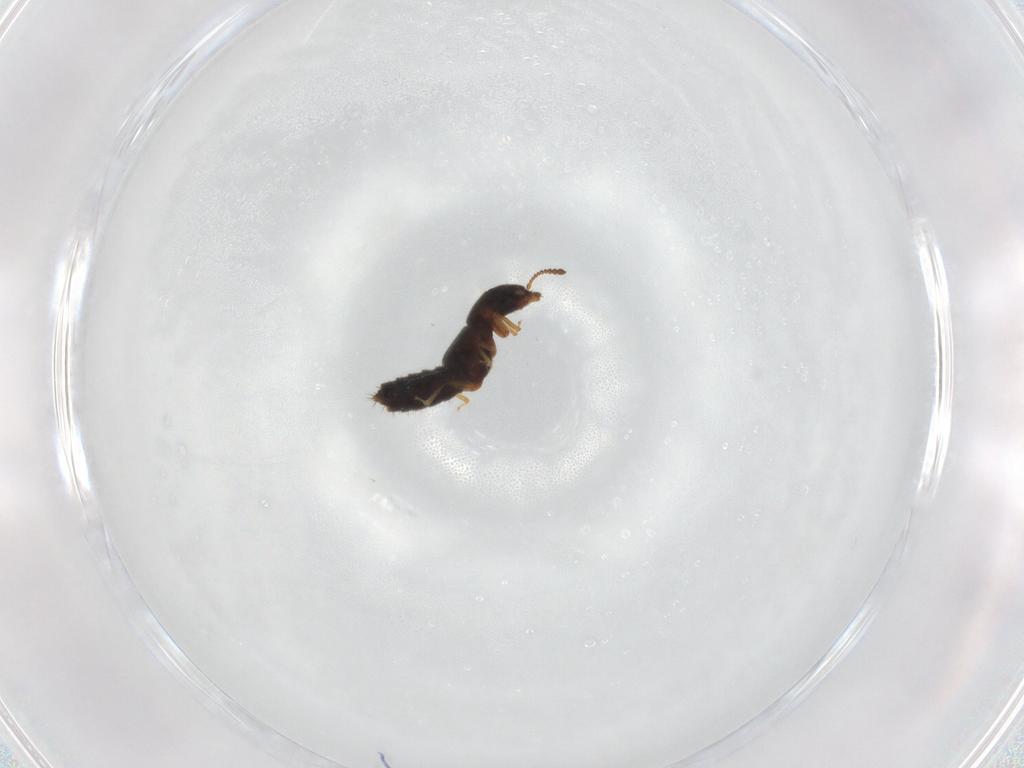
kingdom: Animalia
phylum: Arthropoda
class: Insecta
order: Coleoptera
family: Staphylinidae
